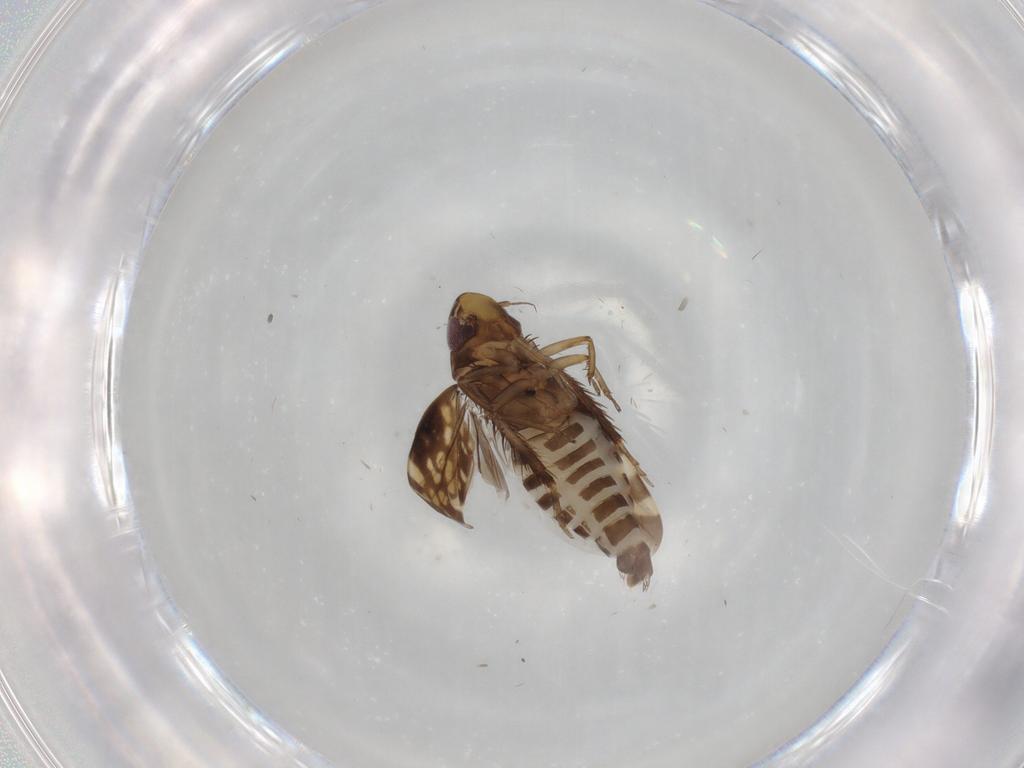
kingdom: Animalia
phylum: Arthropoda
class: Insecta
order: Hemiptera
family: Cicadellidae
